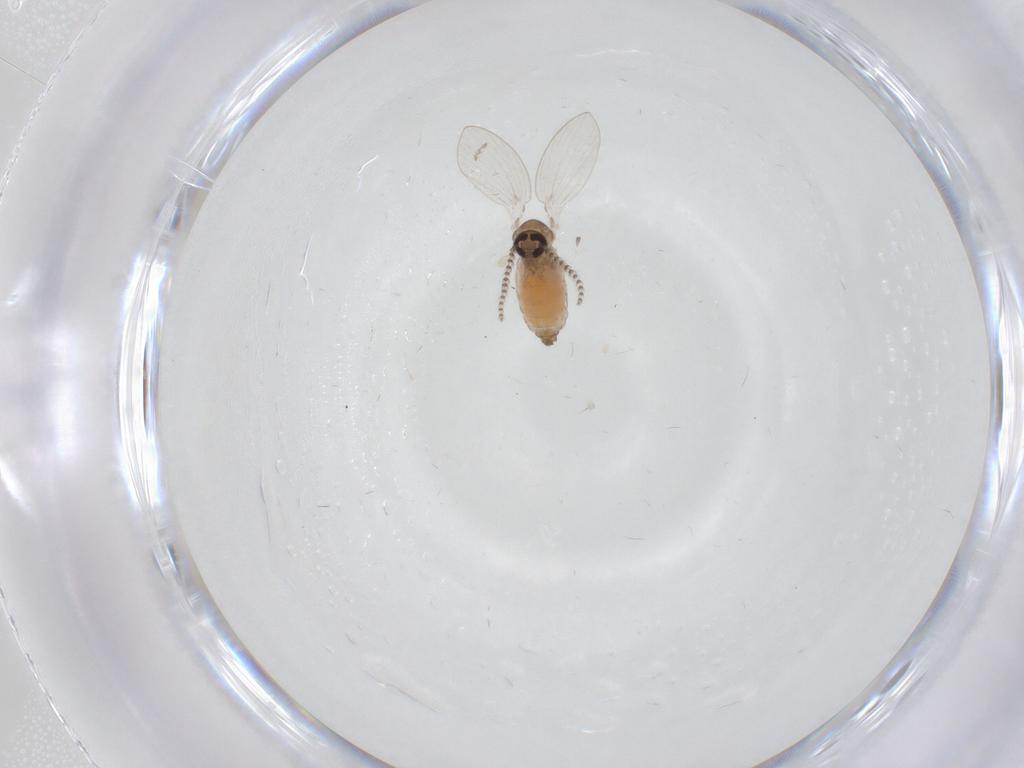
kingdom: Animalia
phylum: Arthropoda
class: Insecta
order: Diptera
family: Psychodidae
